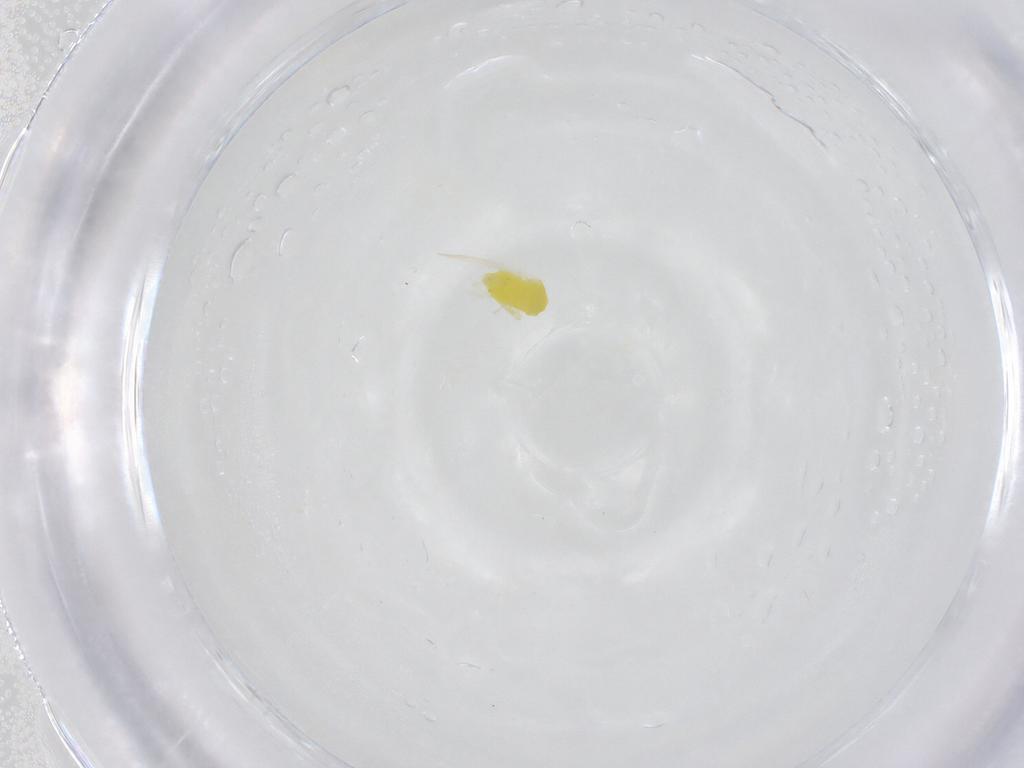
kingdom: Animalia
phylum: Arthropoda
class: Insecta
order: Hemiptera
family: Aleyrodidae
